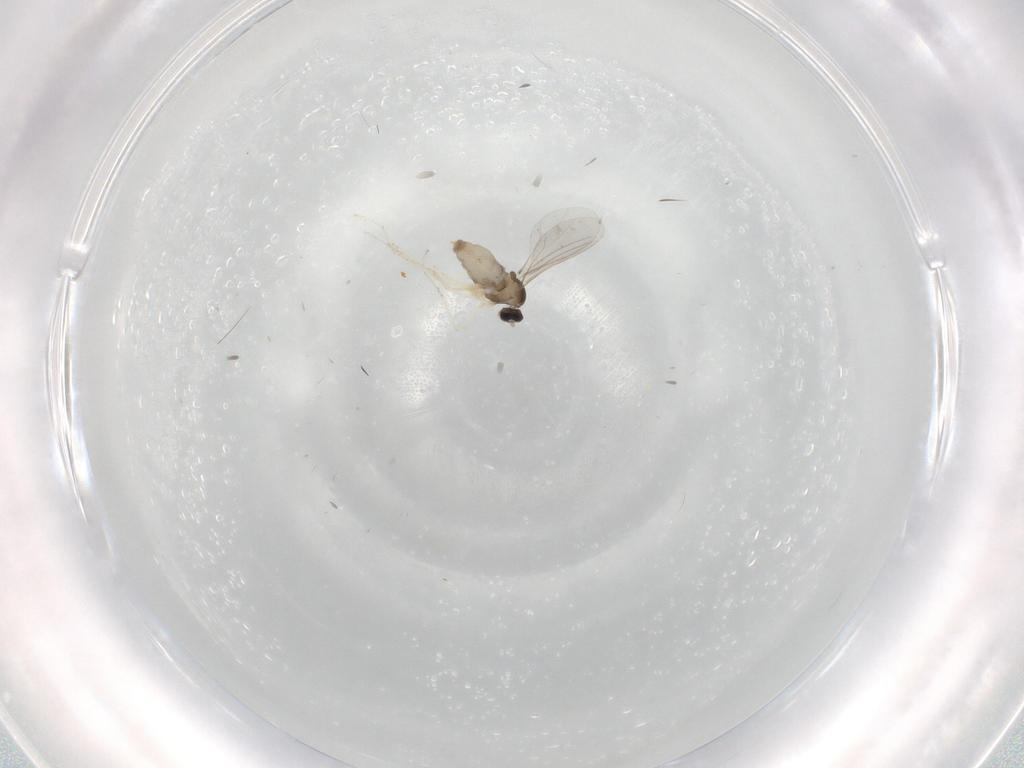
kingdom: Animalia
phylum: Arthropoda
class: Insecta
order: Diptera
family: Cecidomyiidae
